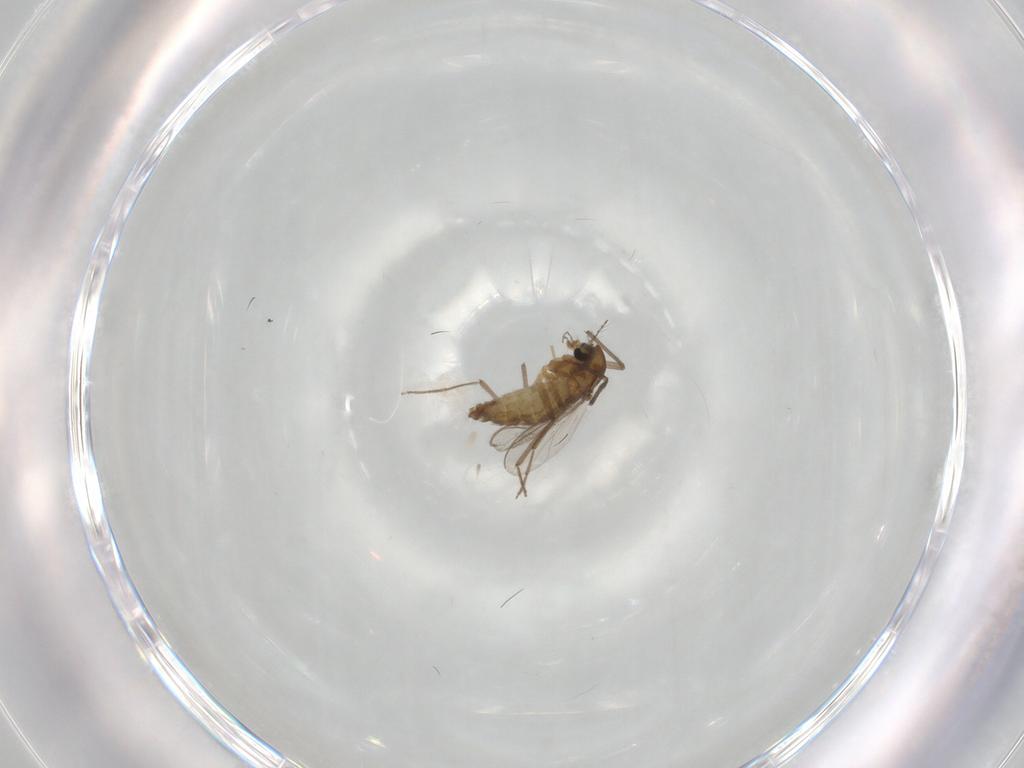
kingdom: Animalia
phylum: Arthropoda
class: Insecta
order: Diptera
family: Chironomidae
